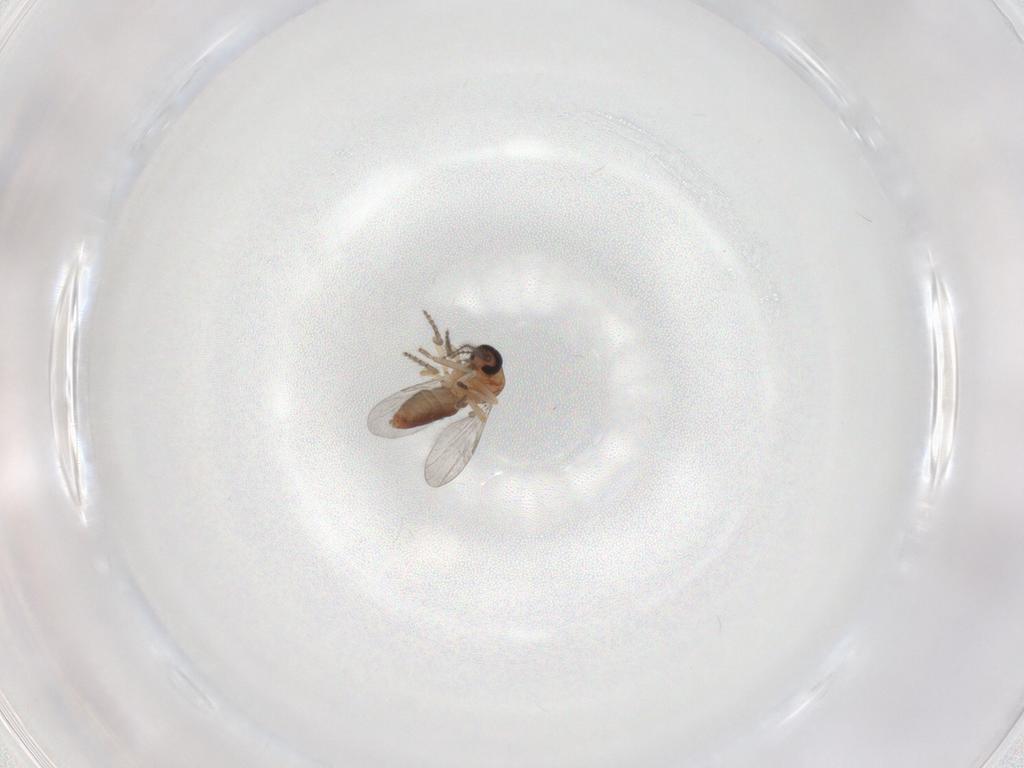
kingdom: Animalia
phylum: Arthropoda
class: Insecta
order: Diptera
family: Ceratopogonidae
